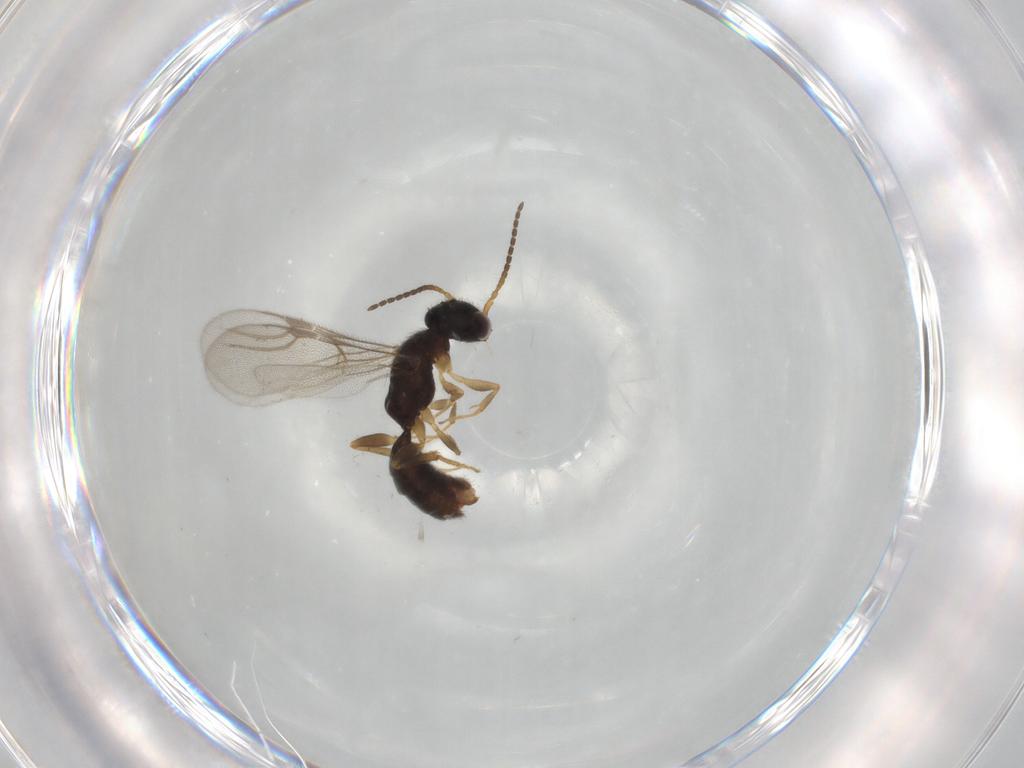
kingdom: Animalia
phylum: Arthropoda
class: Insecta
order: Hymenoptera
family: Bethylidae
